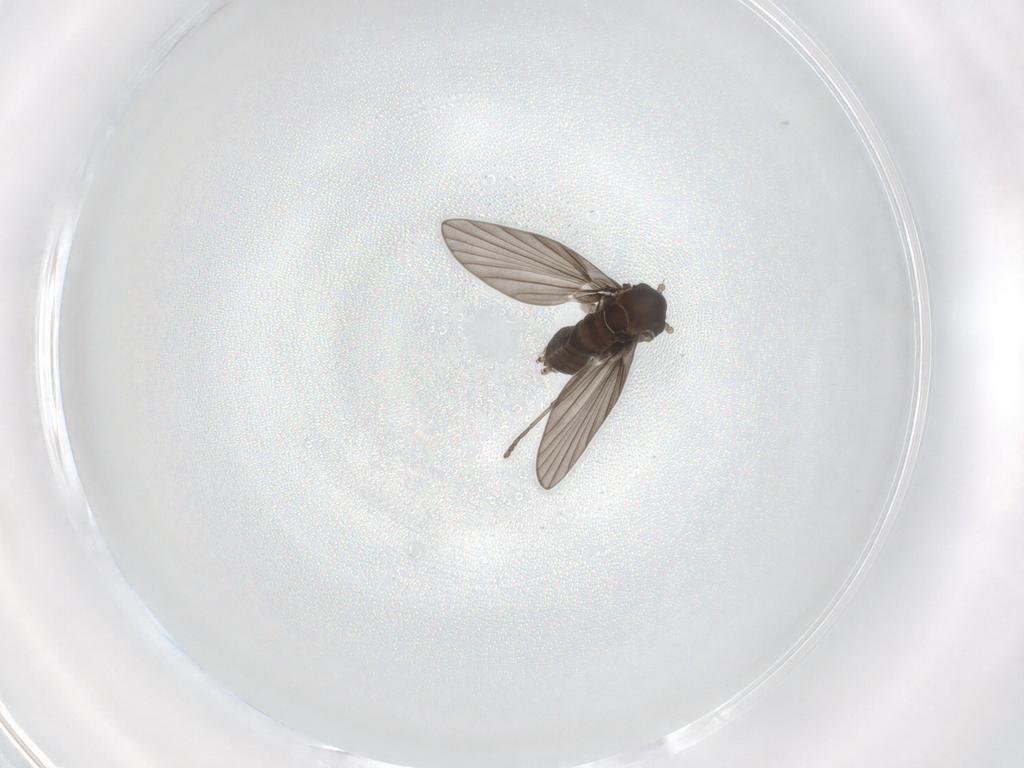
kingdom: Animalia
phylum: Arthropoda
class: Insecta
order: Diptera
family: Psychodidae
